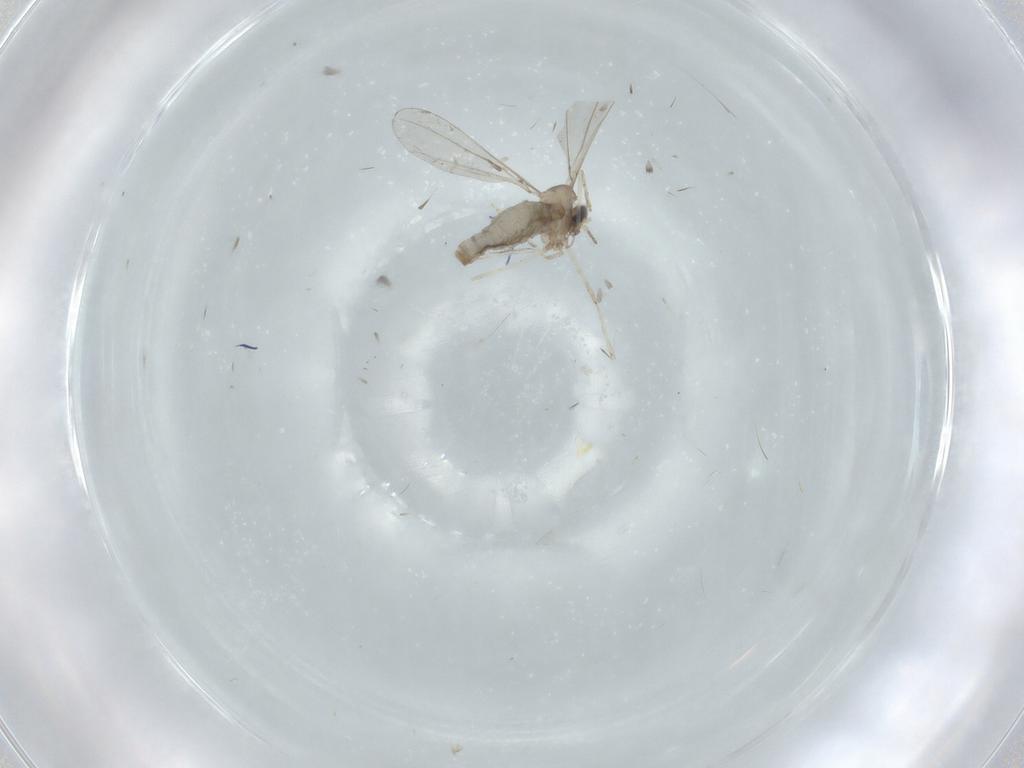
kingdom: Animalia
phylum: Arthropoda
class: Insecta
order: Diptera
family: Cecidomyiidae
